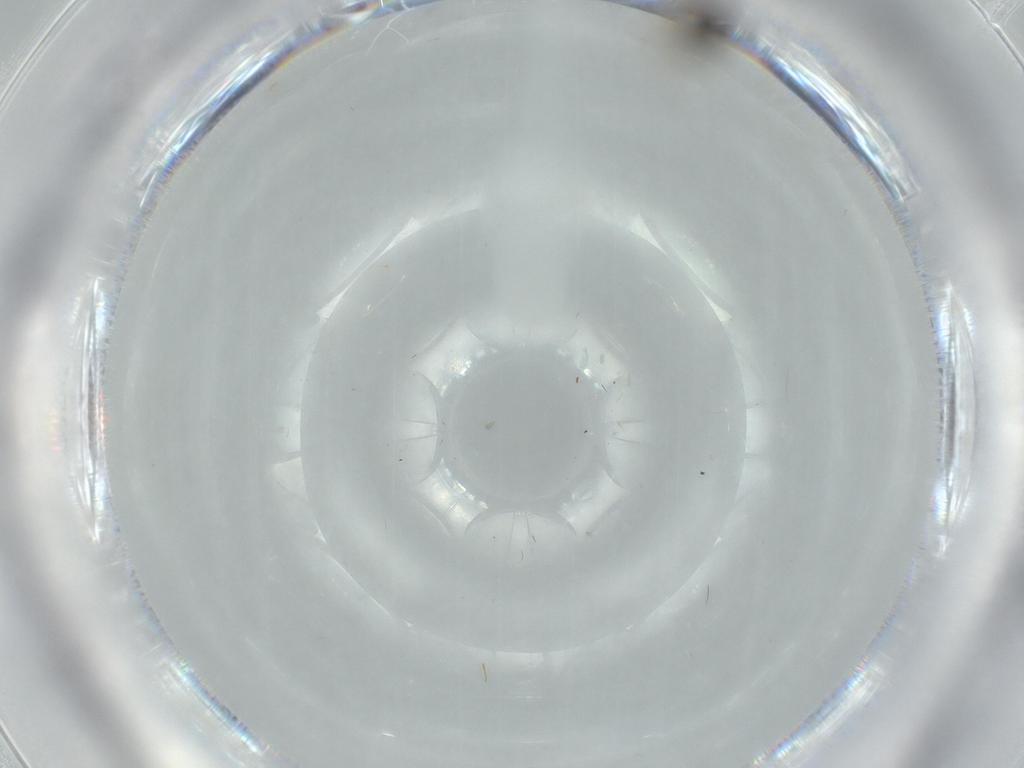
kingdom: Animalia
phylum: Arthropoda
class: Insecta
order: Hymenoptera
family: Scelionidae
